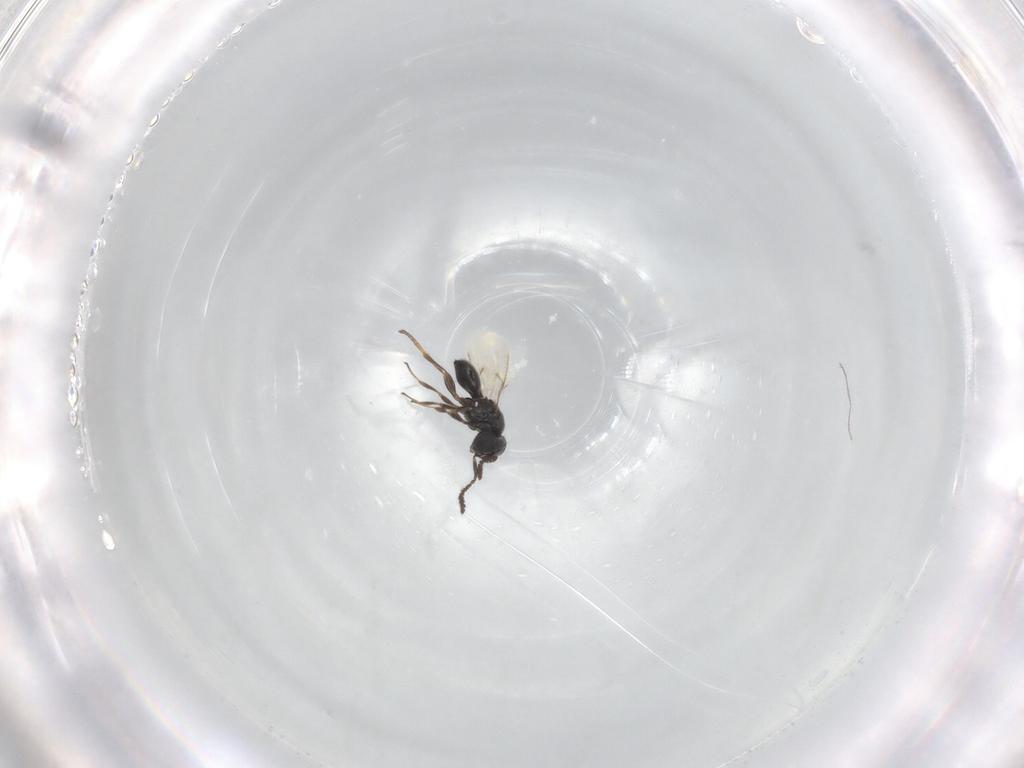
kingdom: Animalia
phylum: Arthropoda
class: Insecta
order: Hymenoptera
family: Scelionidae
